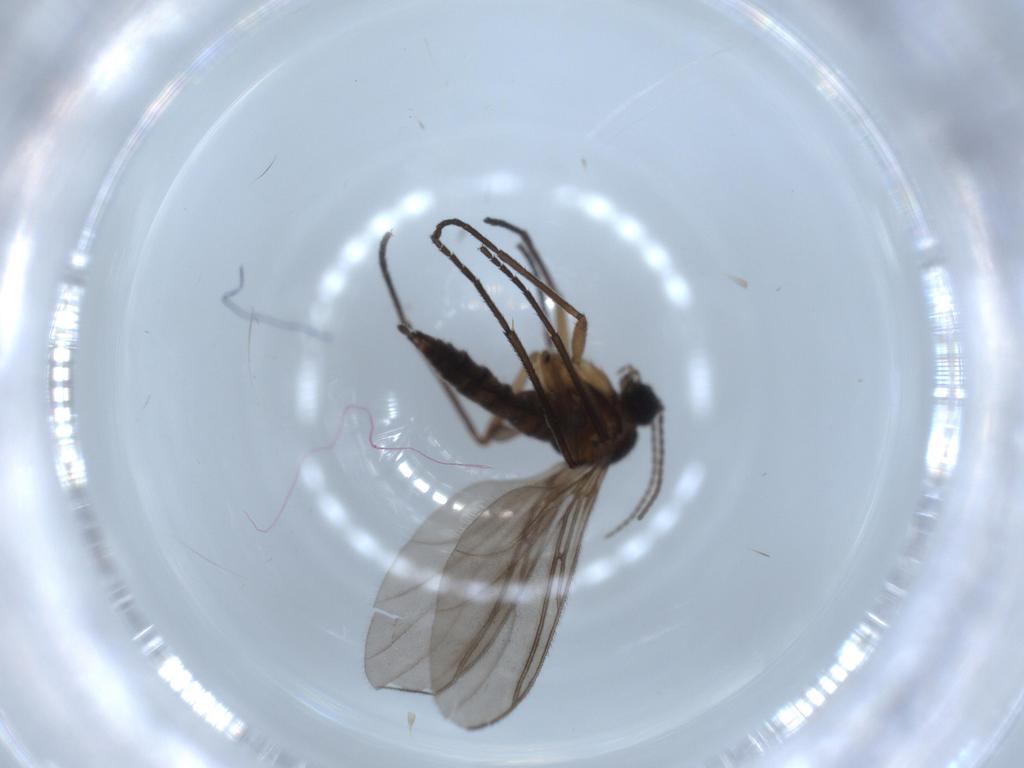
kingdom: Animalia
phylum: Arthropoda
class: Insecta
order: Diptera
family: Sciaridae
